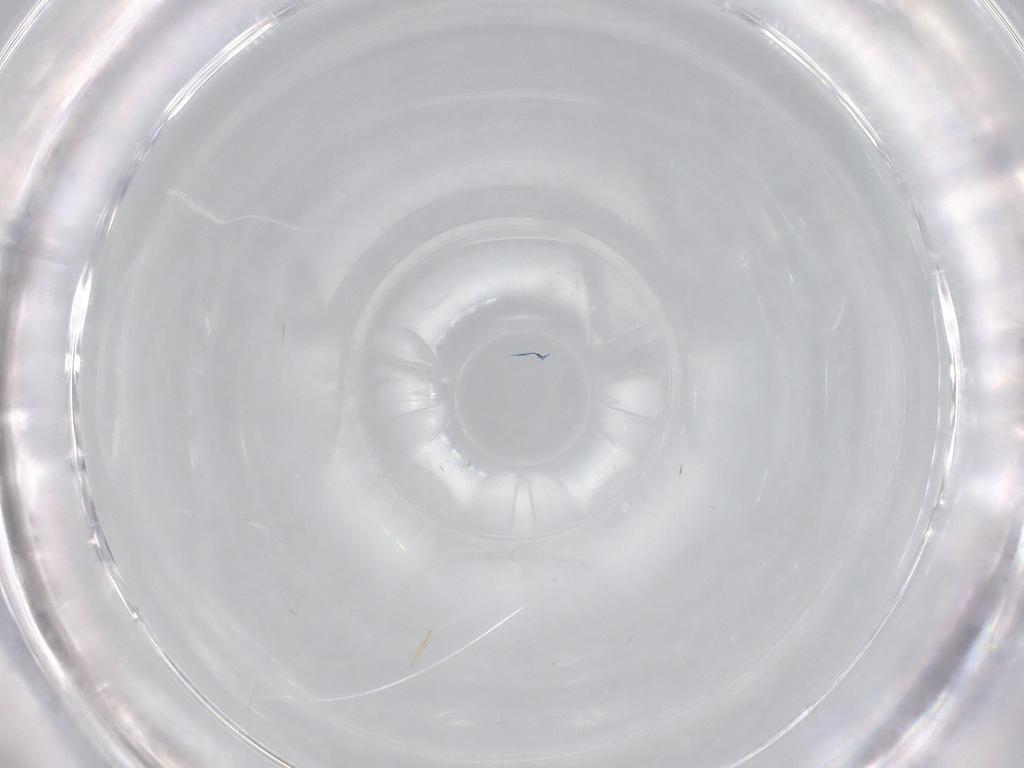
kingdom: Animalia
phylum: Arthropoda
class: Insecta
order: Diptera
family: Mycetophilidae
